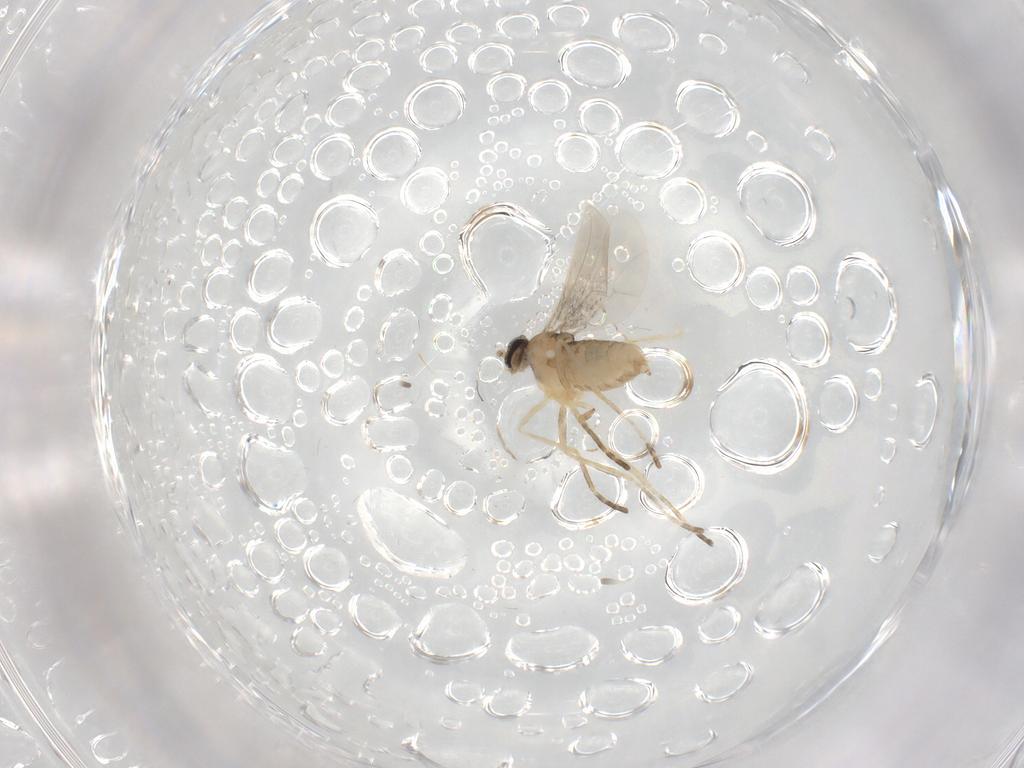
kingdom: Animalia
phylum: Arthropoda
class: Insecta
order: Diptera
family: Cecidomyiidae
